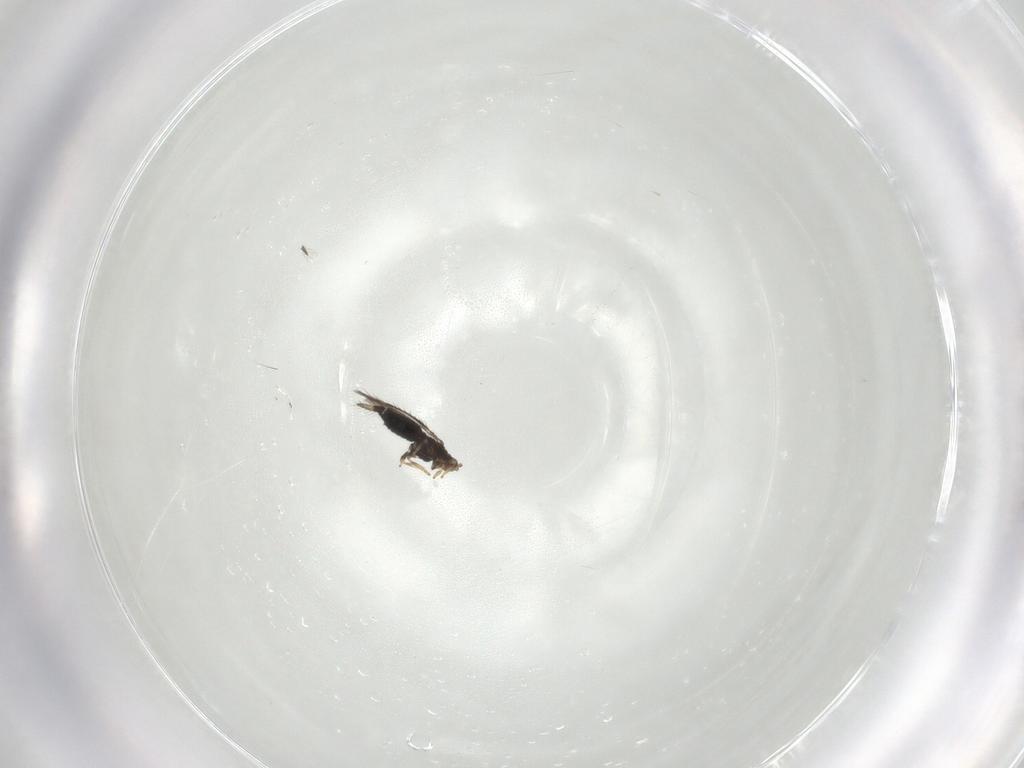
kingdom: Animalia
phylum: Arthropoda
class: Insecta
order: Thysanoptera
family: Thripidae
